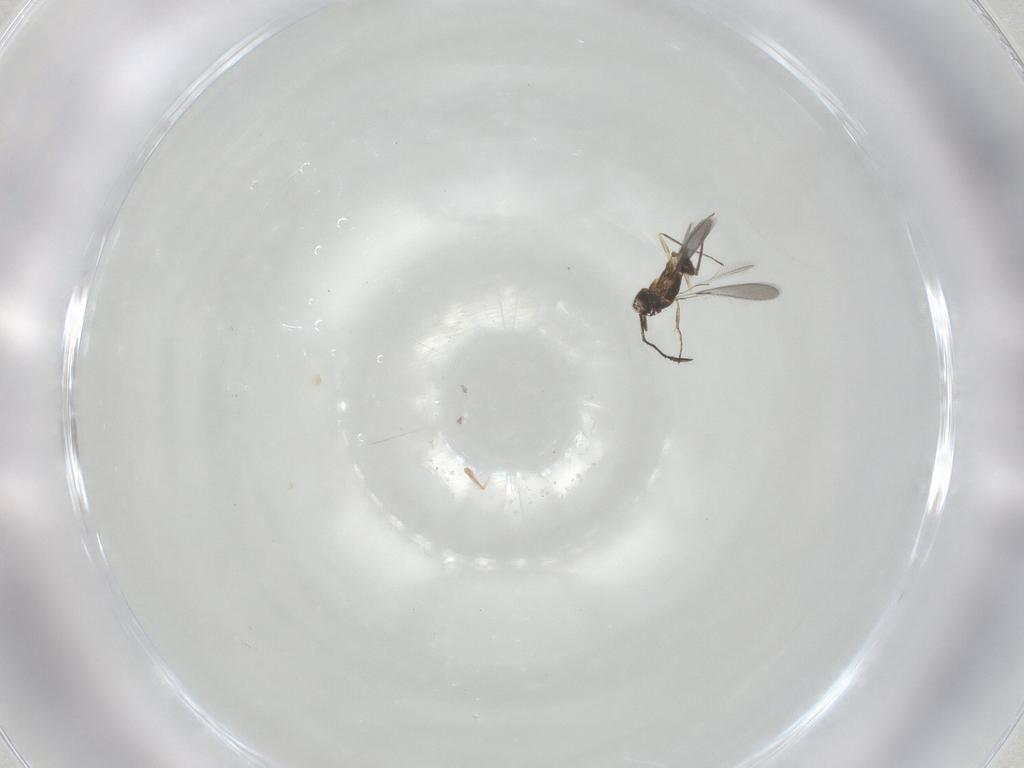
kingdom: Animalia
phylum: Arthropoda
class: Insecta
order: Hymenoptera
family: Mymaridae
